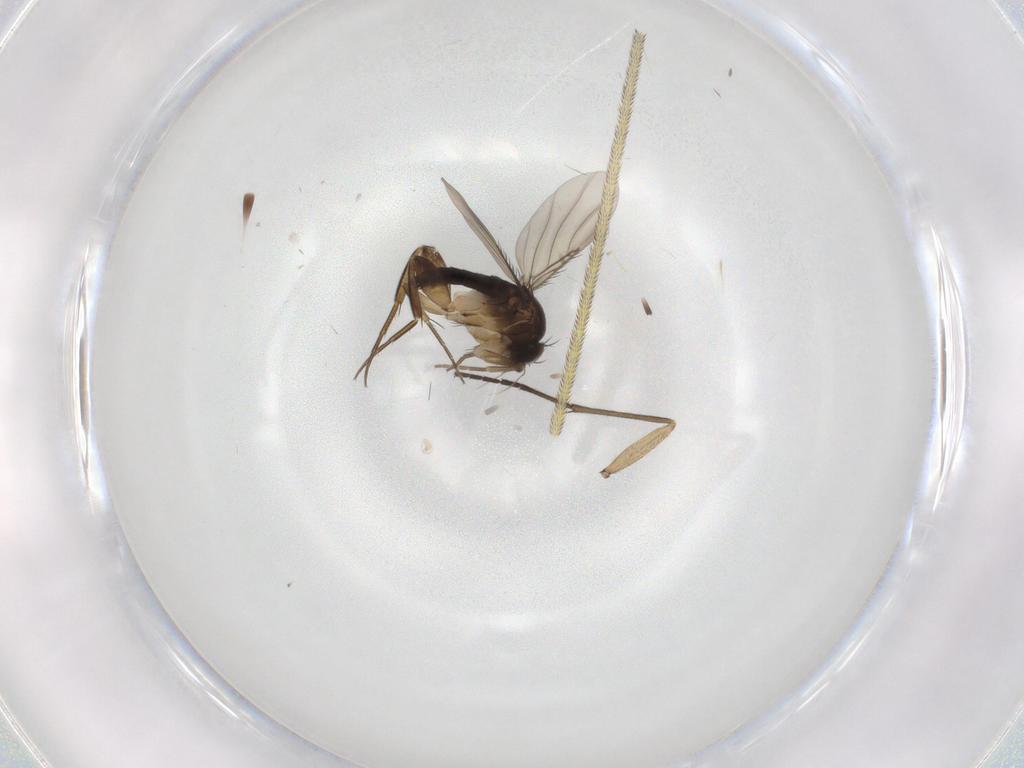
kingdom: Animalia
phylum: Arthropoda
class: Insecta
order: Diptera
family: Phoridae
